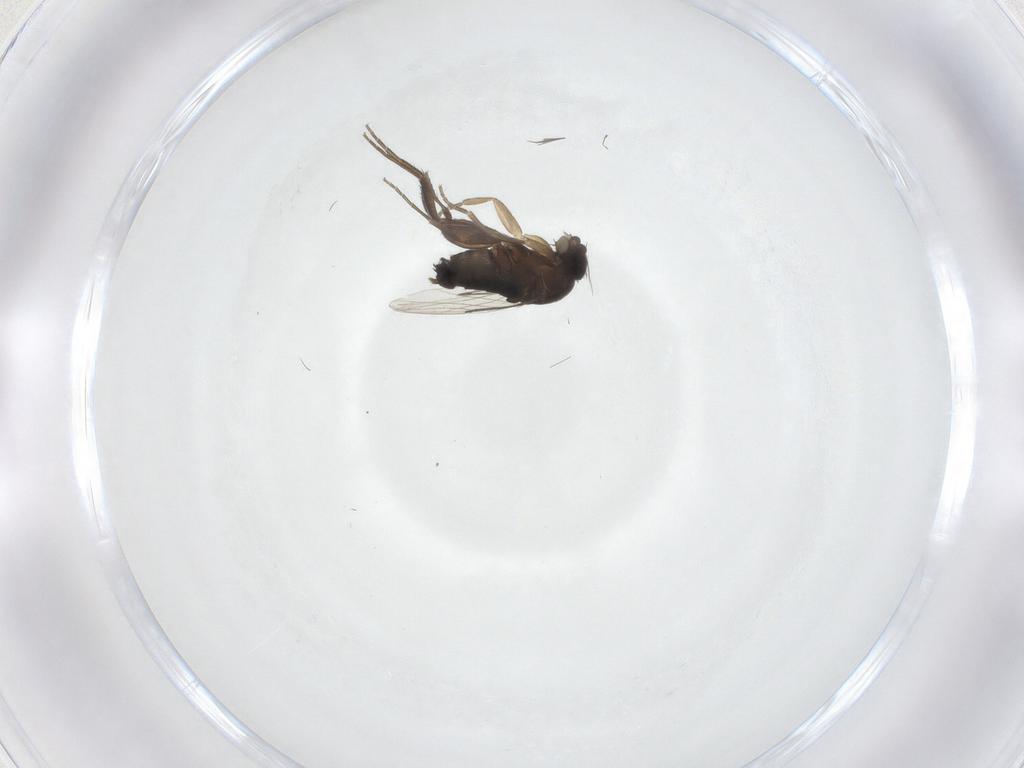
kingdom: Animalia
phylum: Arthropoda
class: Insecta
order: Diptera
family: Phoridae
